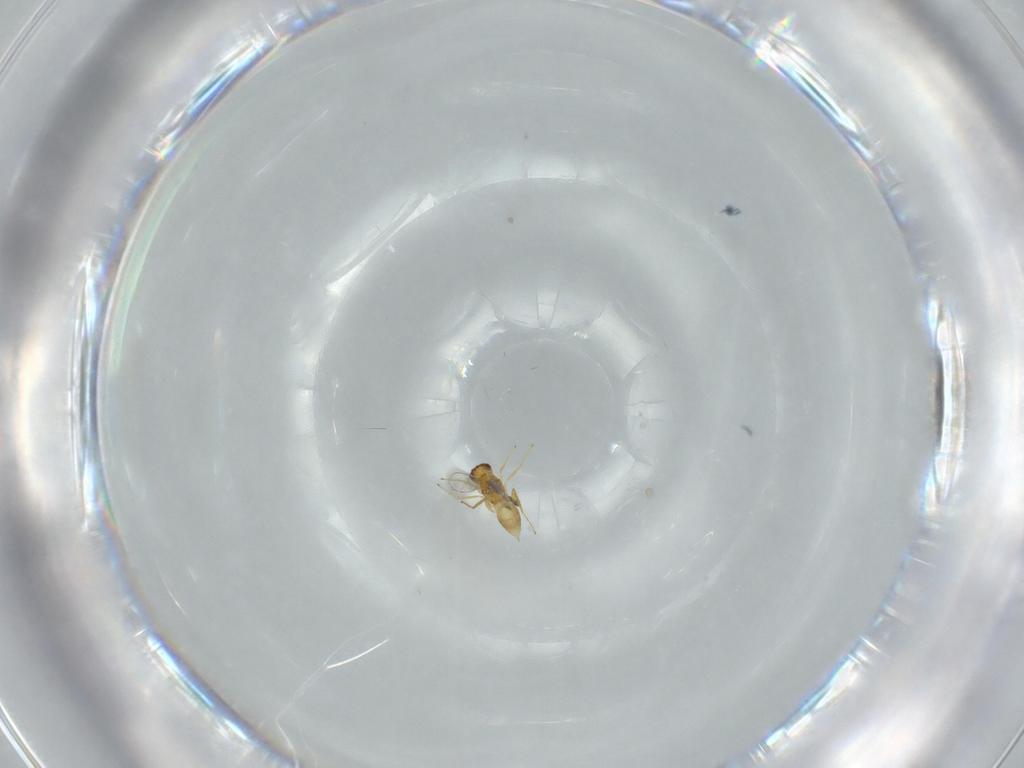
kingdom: Animalia
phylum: Arthropoda
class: Insecta
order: Hymenoptera
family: Mymaridae
